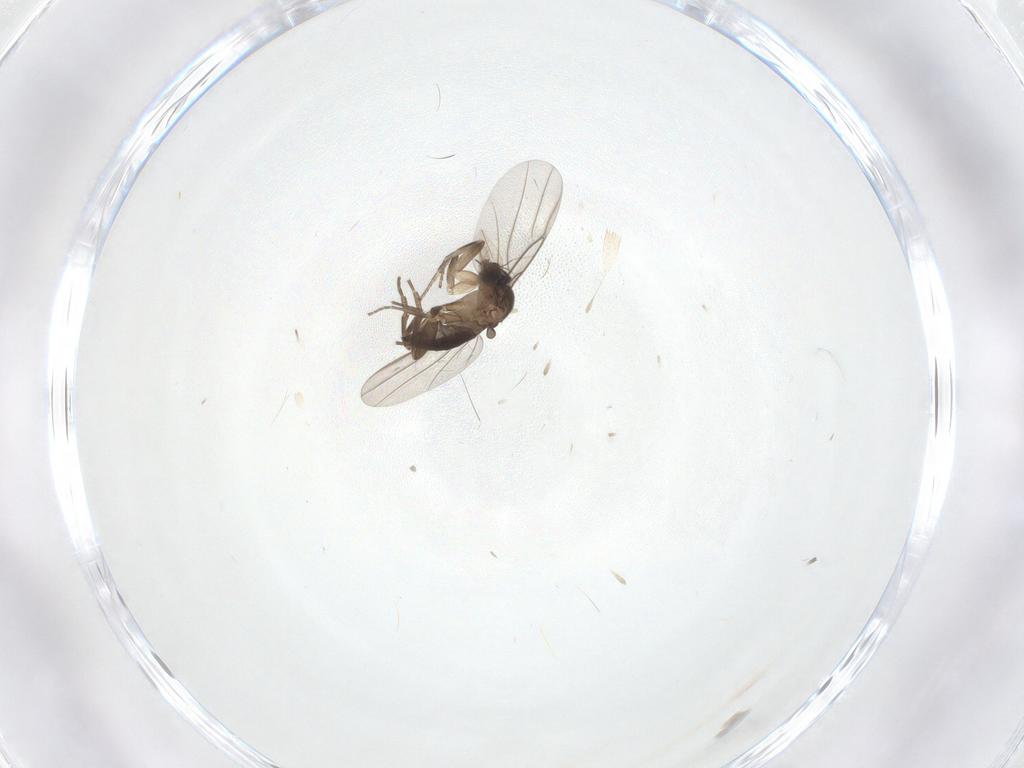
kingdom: Animalia
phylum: Arthropoda
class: Insecta
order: Diptera
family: Phoridae
